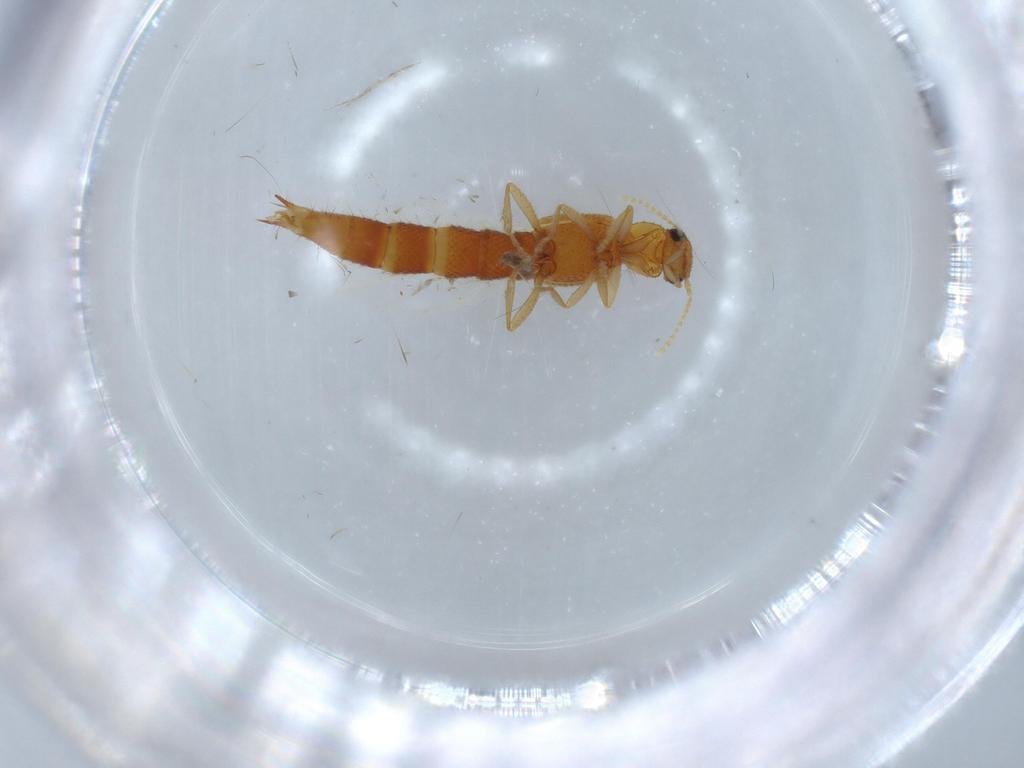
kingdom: Animalia
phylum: Arthropoda
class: Insecta
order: Coleoptera
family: Staphylinidae
